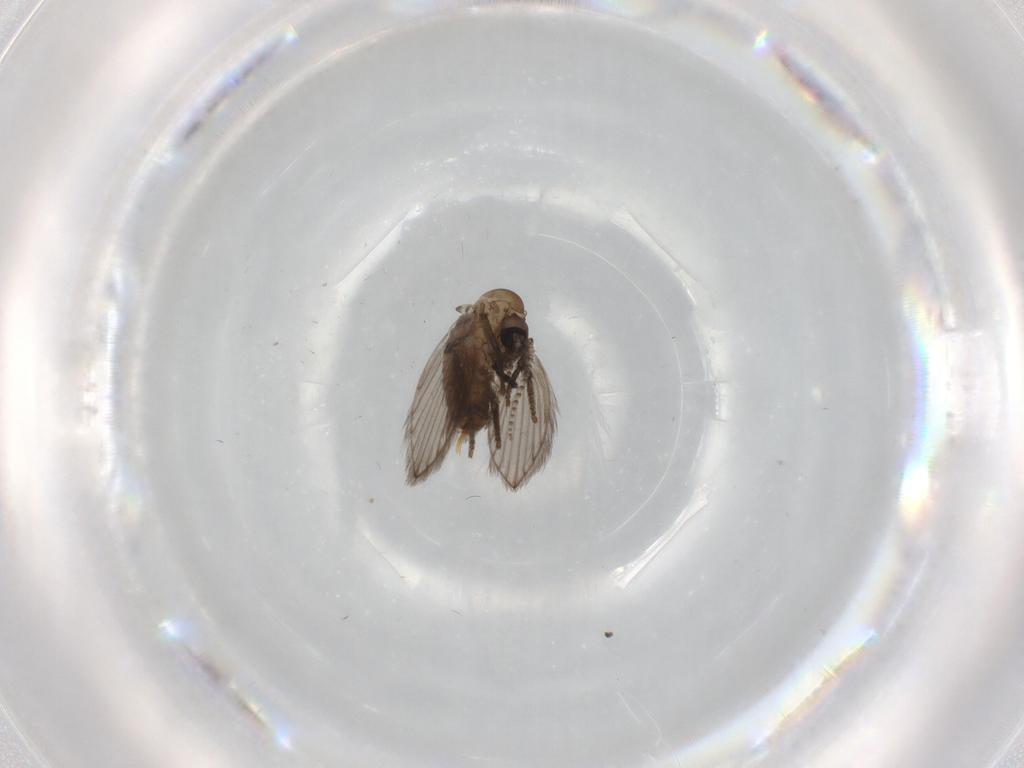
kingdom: Animalia
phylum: Arthropoda
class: Insecta
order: Diptera
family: Psychodidae
